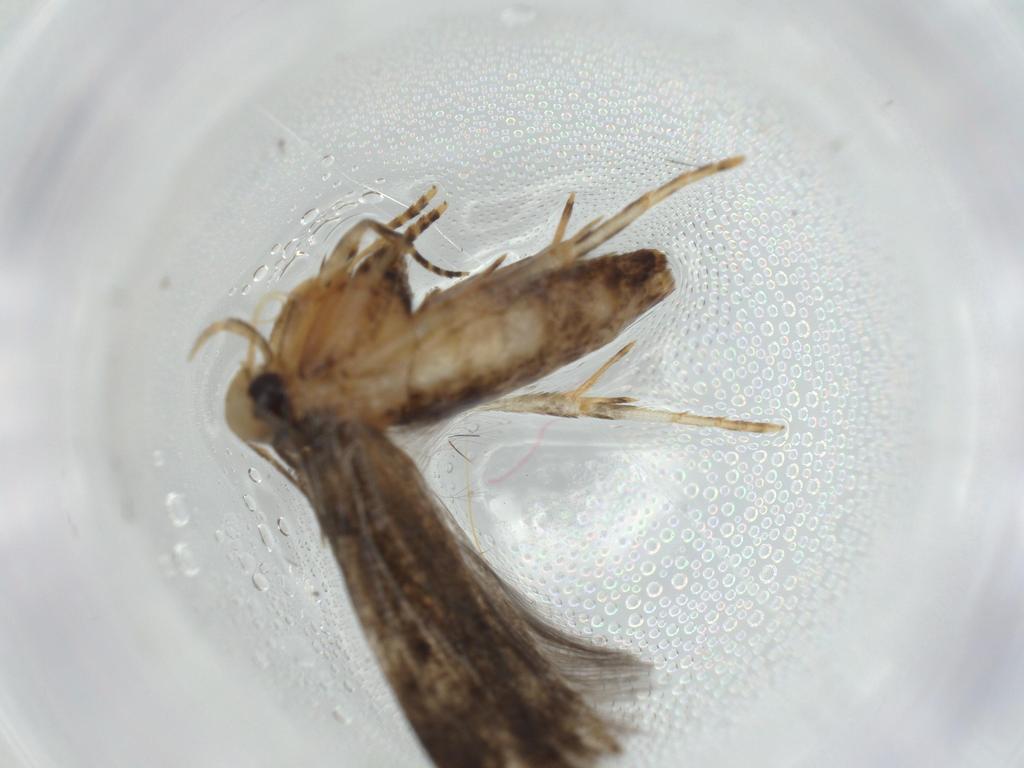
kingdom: Animalia
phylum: Arthropoda
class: Insecta
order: Lepidoptera
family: Cosmopterigidae
